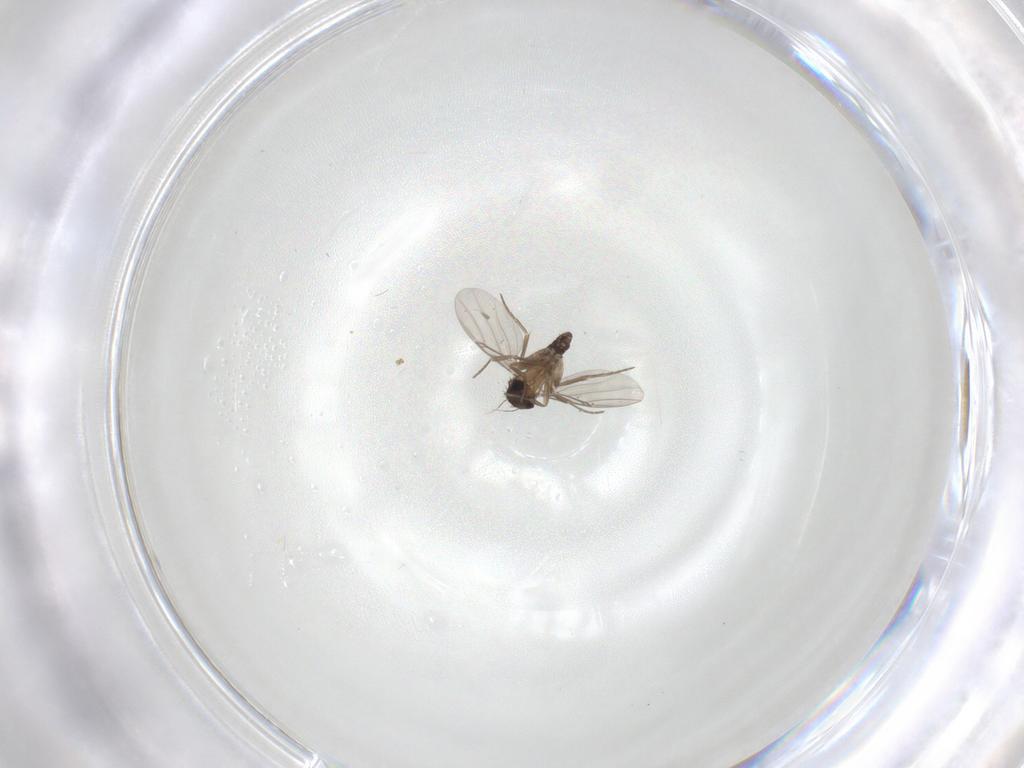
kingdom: Animalia
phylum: Arthropoda
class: Insecta
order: Diptera
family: Phoridae
